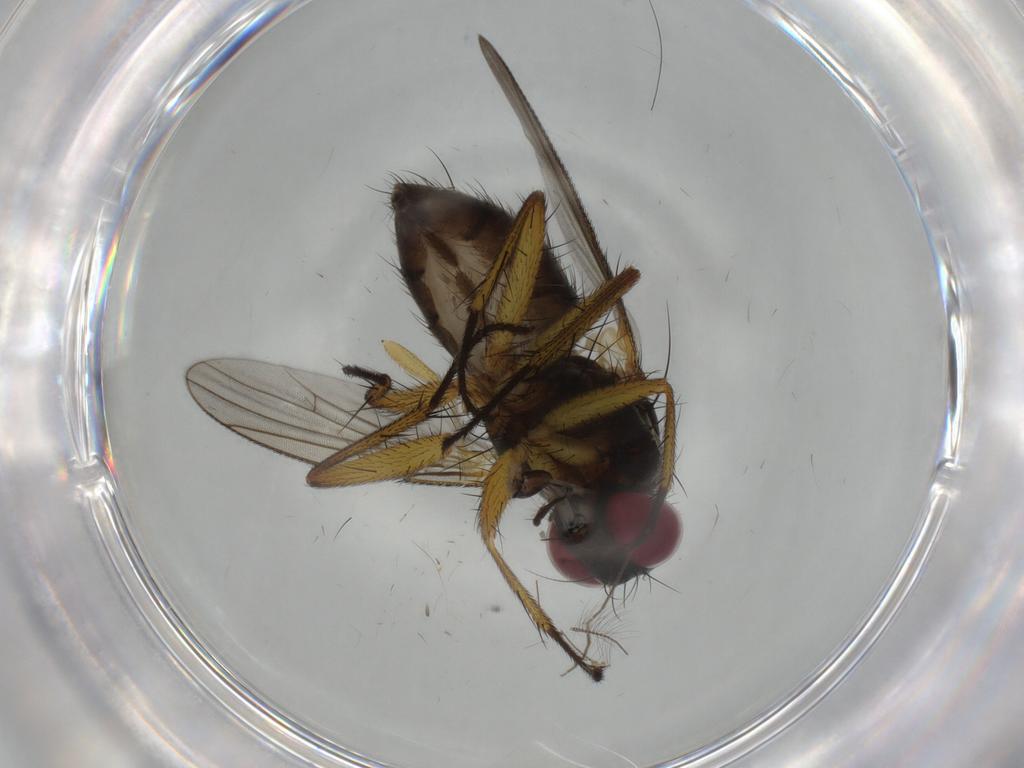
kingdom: Animalia
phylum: Arthropoda
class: Insecta
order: Diptera
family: Muscidae
